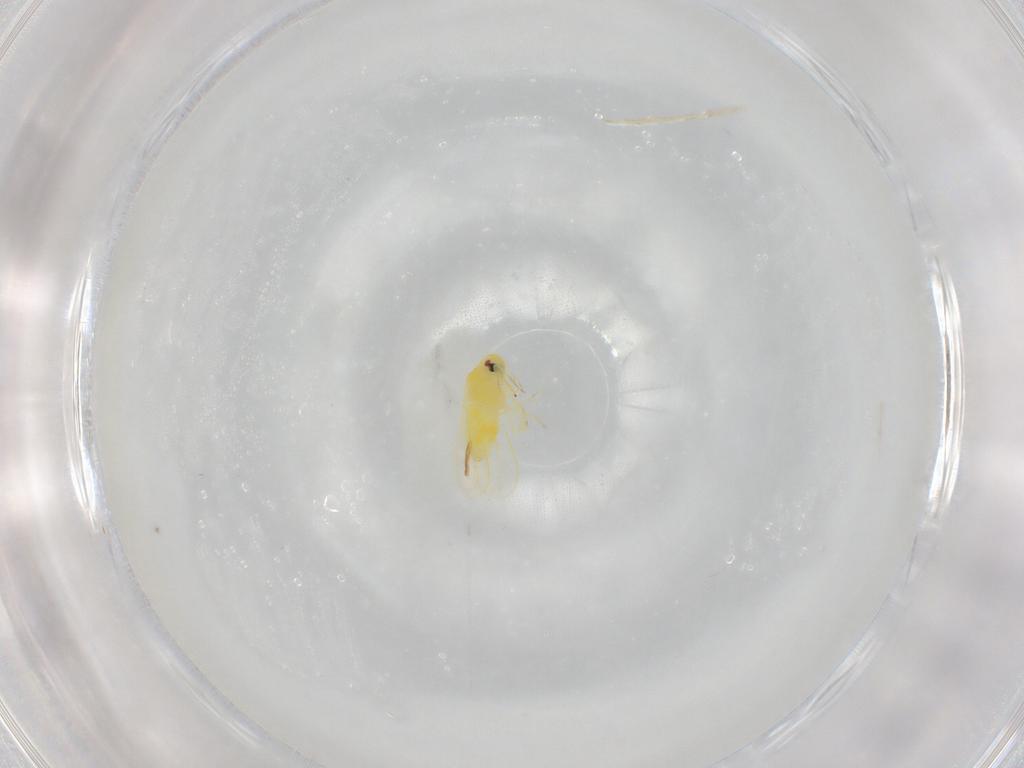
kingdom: Animalia
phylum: Arthropoda
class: Insecta
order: Hemiptera
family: Aleyrodidae
